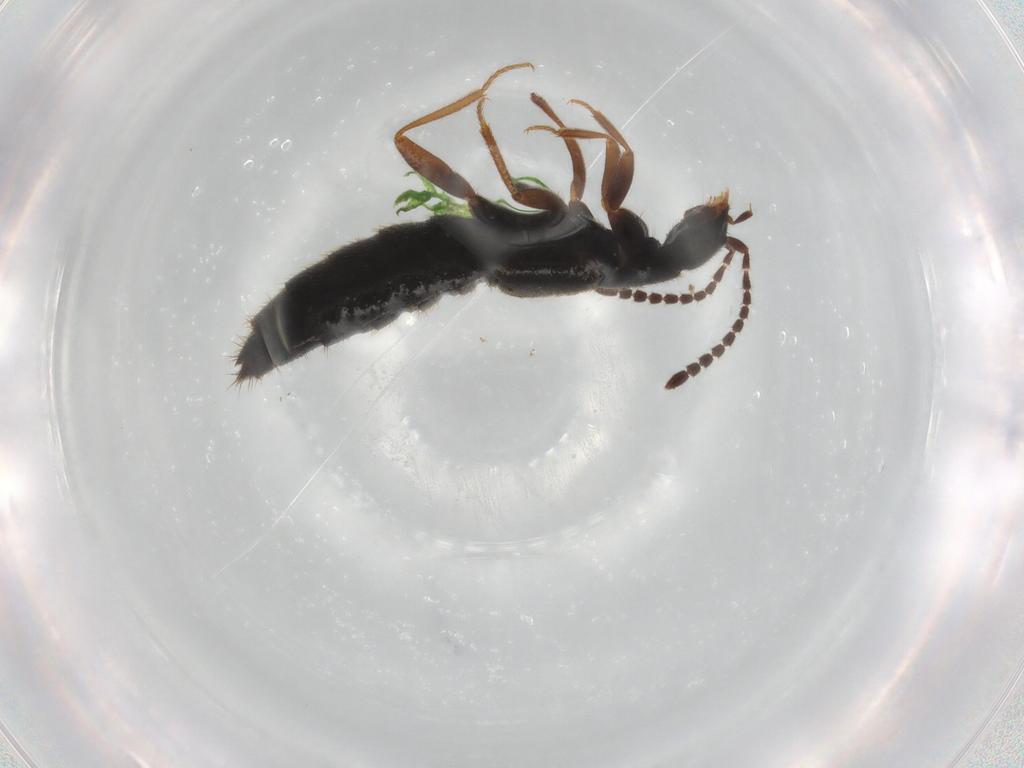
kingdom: Animalia
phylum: Arthropoda
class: Insecta
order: Coleoptera
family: Staphylinidae
